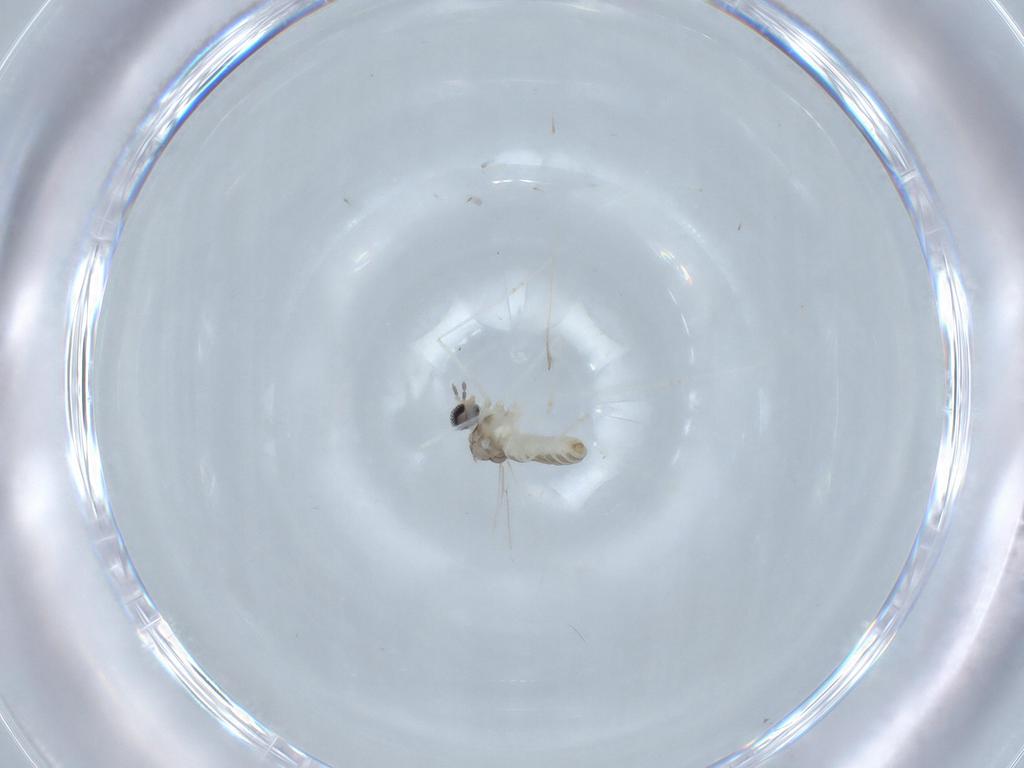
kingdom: Animalia
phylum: Arthropoda
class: Insecta
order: Diptera
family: Cecidomyiidae
